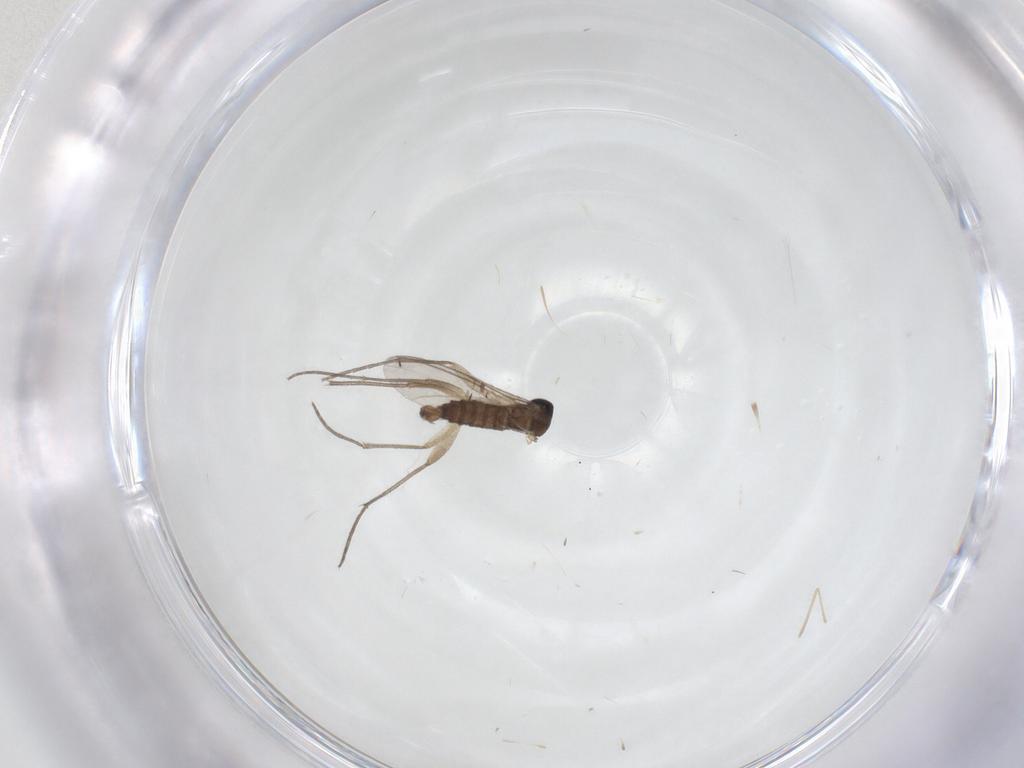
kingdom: Animalia
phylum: Arthropoda
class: Insecta
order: Diptera
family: Sciaridae
